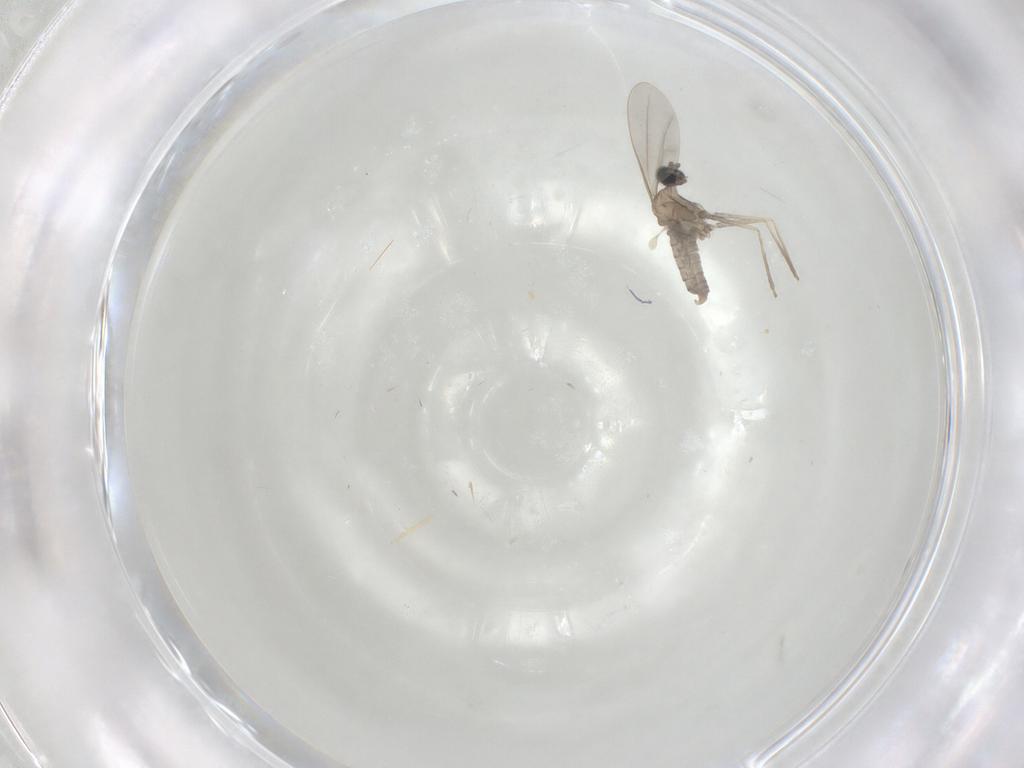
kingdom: Animalia
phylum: Arthropoda
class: Insecta
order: Diptera
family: Cecidomyiidae
